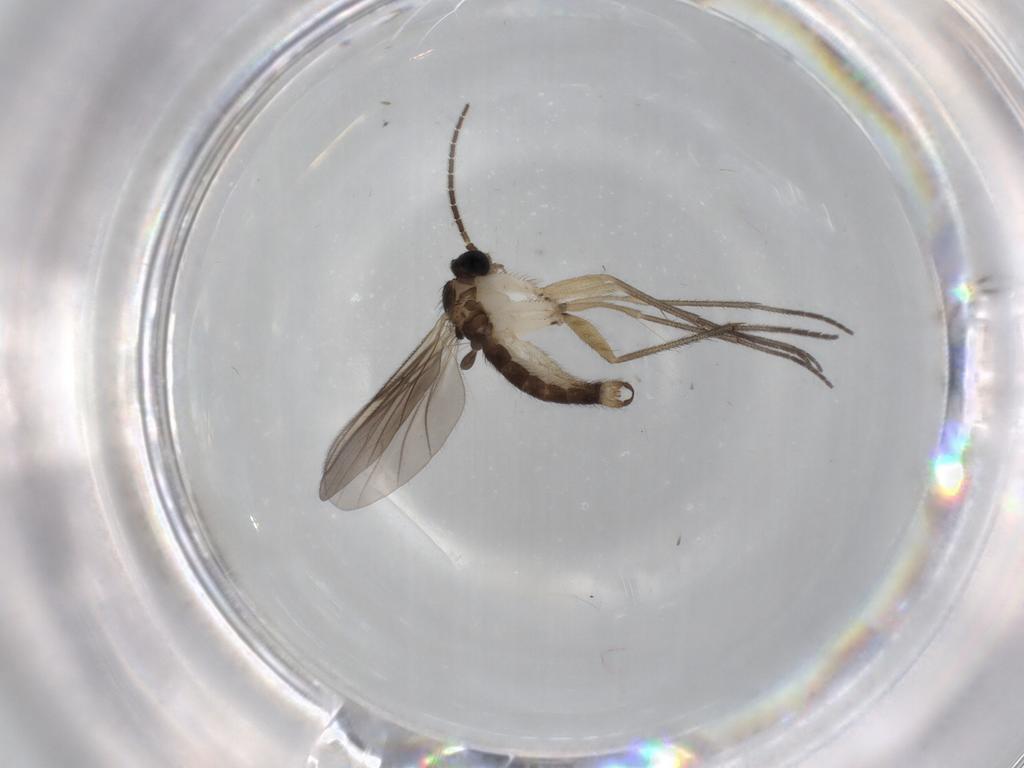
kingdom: Animalia
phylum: Arthropoda
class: Insecta
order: Diptera
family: Sciaridae
